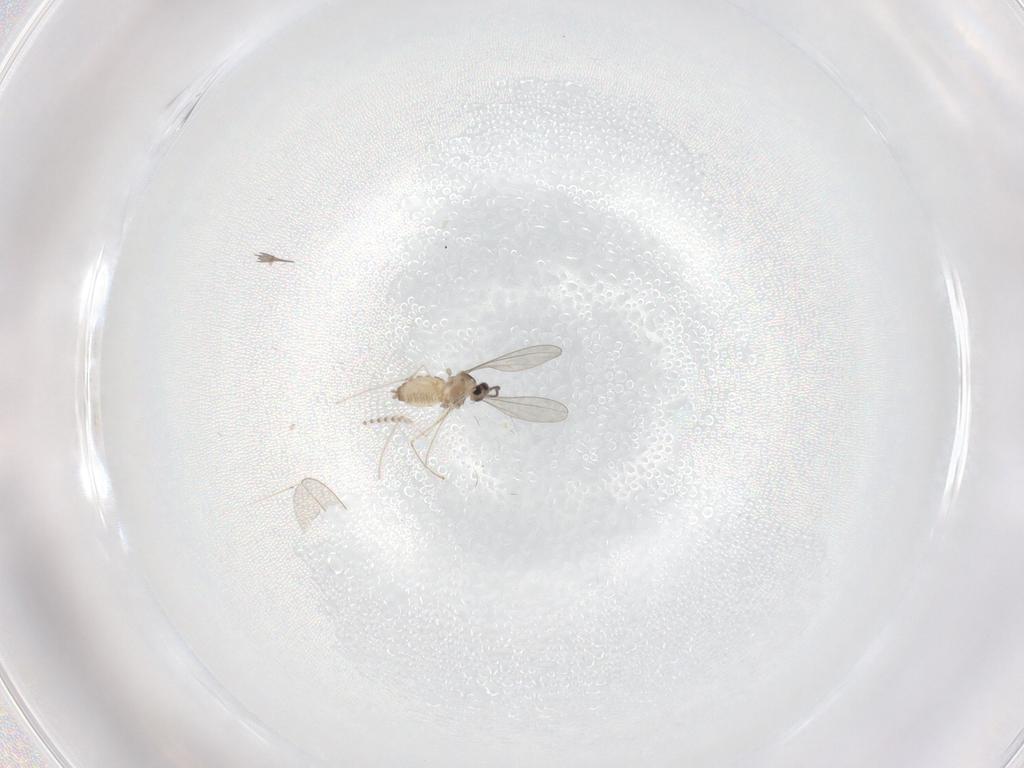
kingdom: Animalia
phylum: Arthropoda
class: Insecta
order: Diptera
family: Cecidomyiidae
